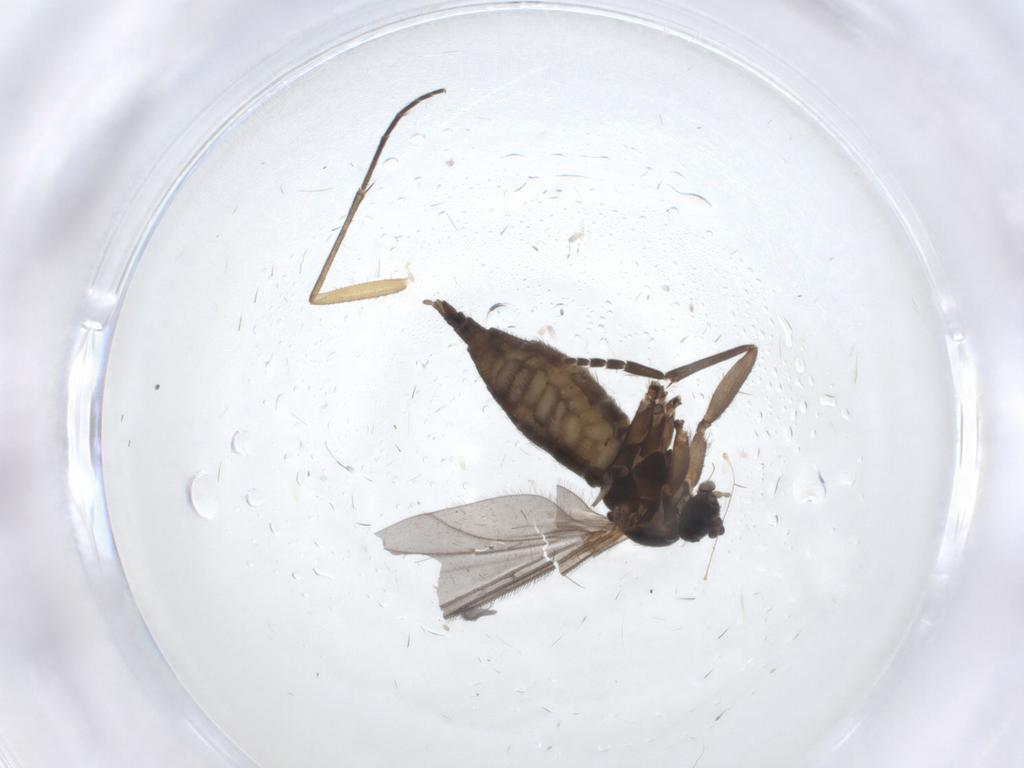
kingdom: Animalia
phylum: Arthropoda
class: Insecta
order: Diptera
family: Sciaridae
